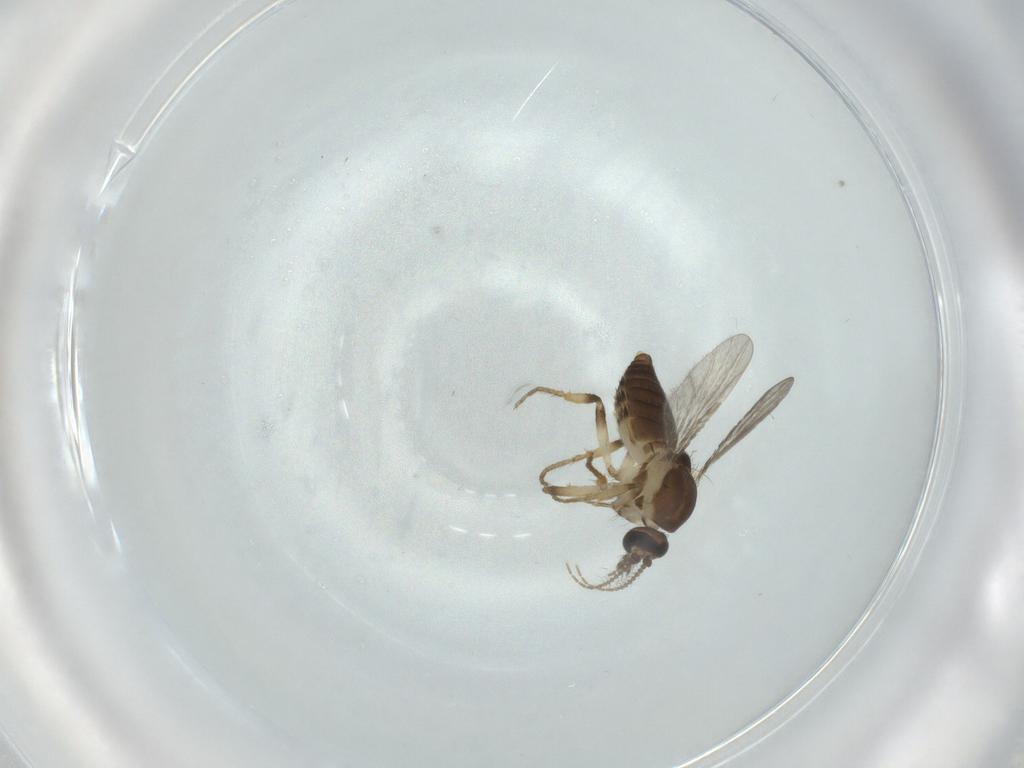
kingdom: Animalia
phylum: Arthropoda
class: Insecta
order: Diptera
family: Ceratopogonidae
